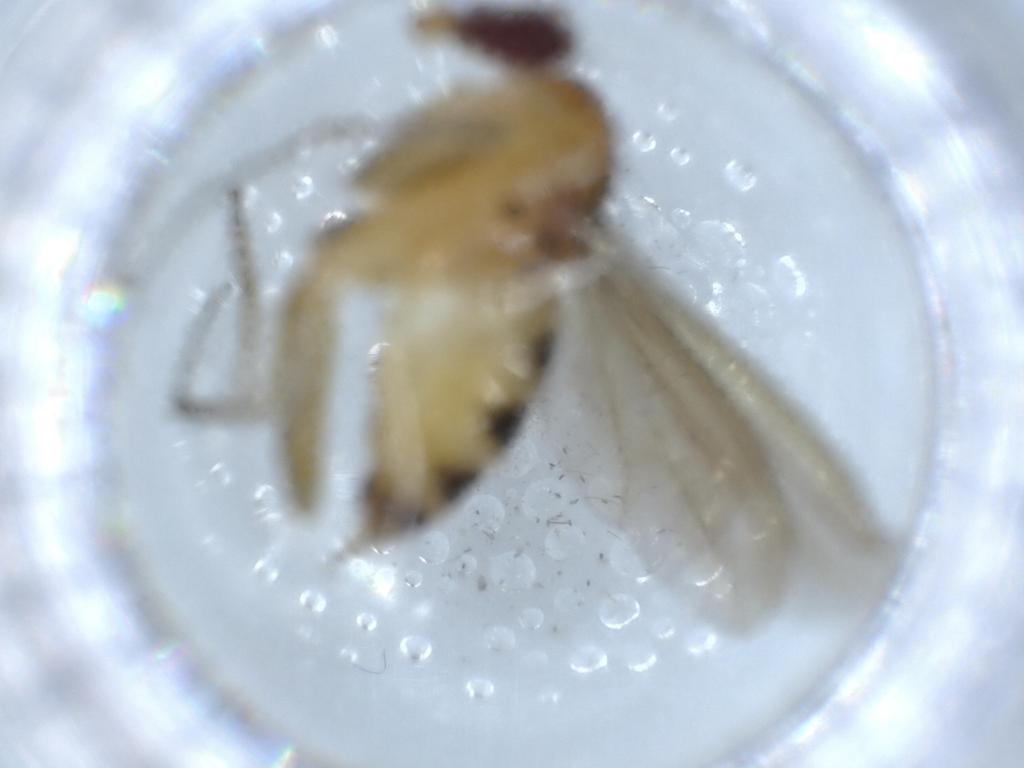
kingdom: Animalia
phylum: Arthropoda
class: Insecta
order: Diptera
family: Dolichopodidae
